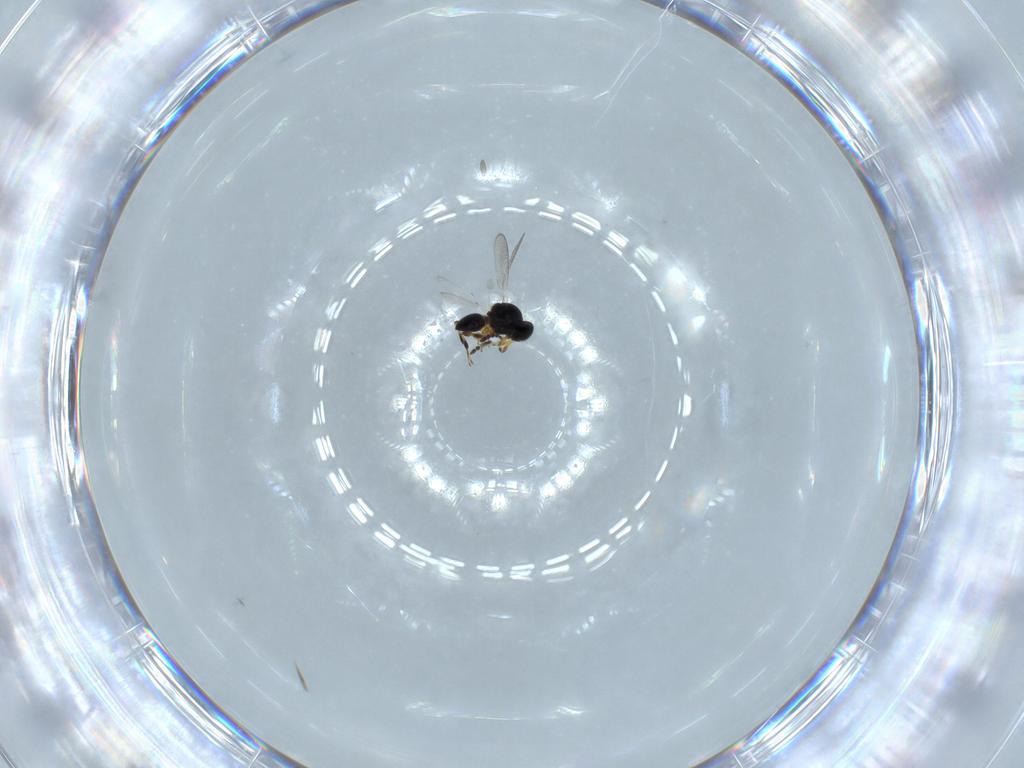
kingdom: Animalia
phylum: Arthropoda
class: Insecta
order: Hymenoptera
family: Platygastridae
